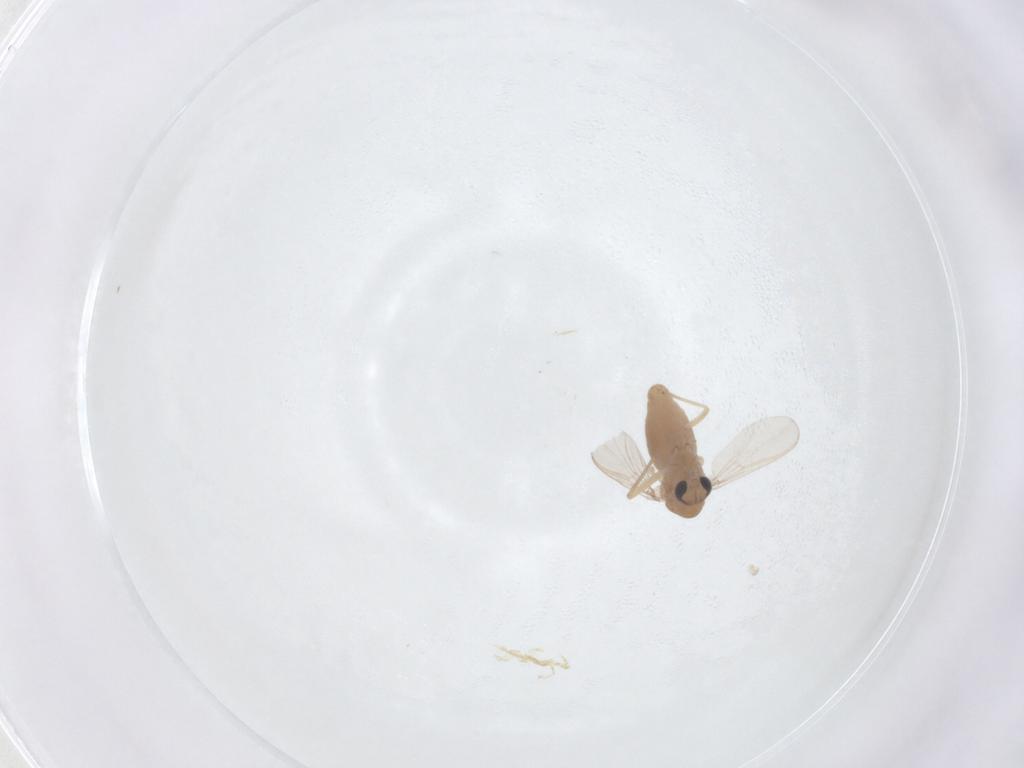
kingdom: Animalia
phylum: Arthropoda
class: Insecta
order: Diptera
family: Chironomidae
